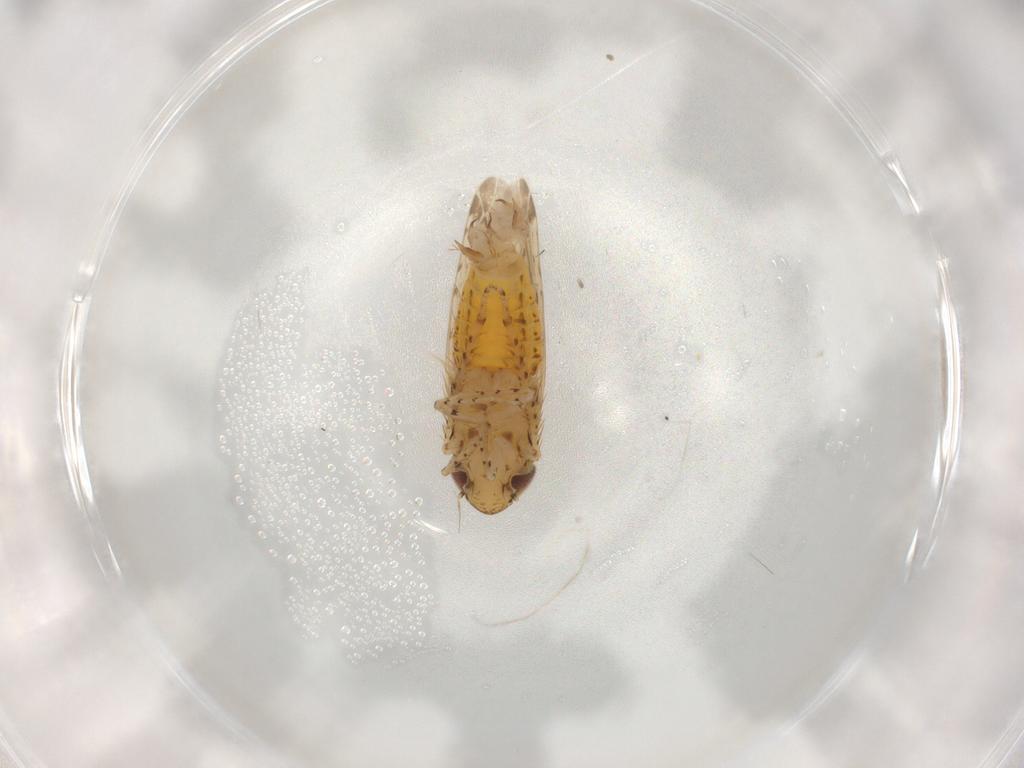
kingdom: Animalia
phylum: Arthropoda
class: Insecta
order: Hemiptera
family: Cicadellidae
